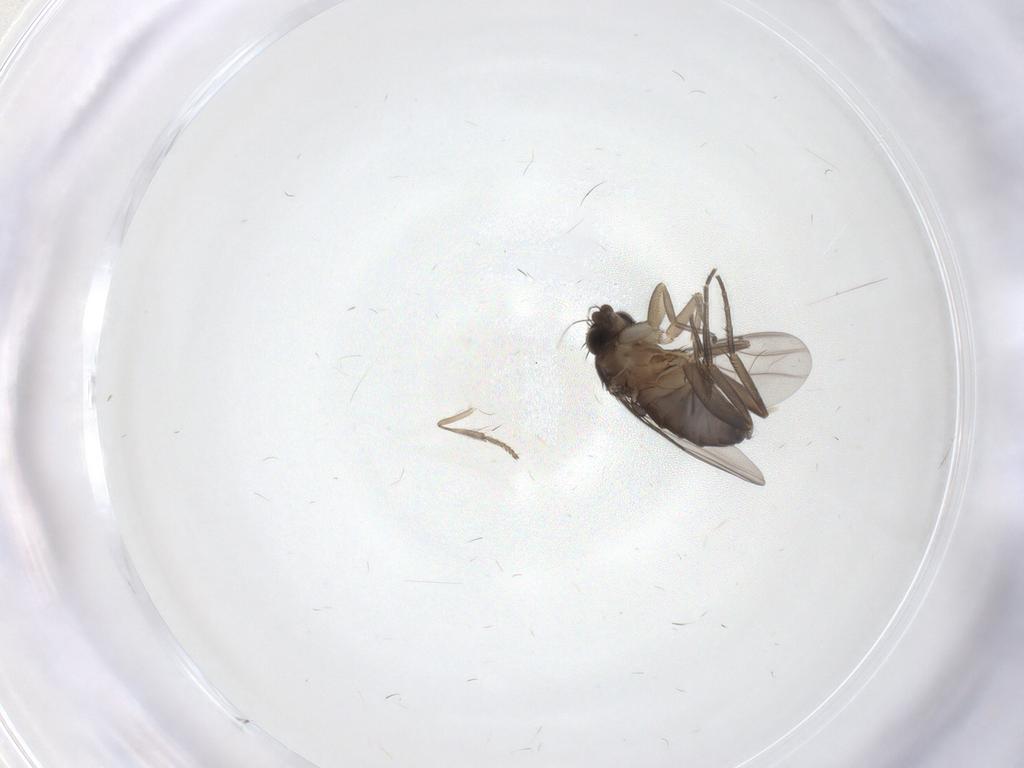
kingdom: Animalia
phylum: Arthropoda
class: Insecta
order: Diptera
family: Phoridae
